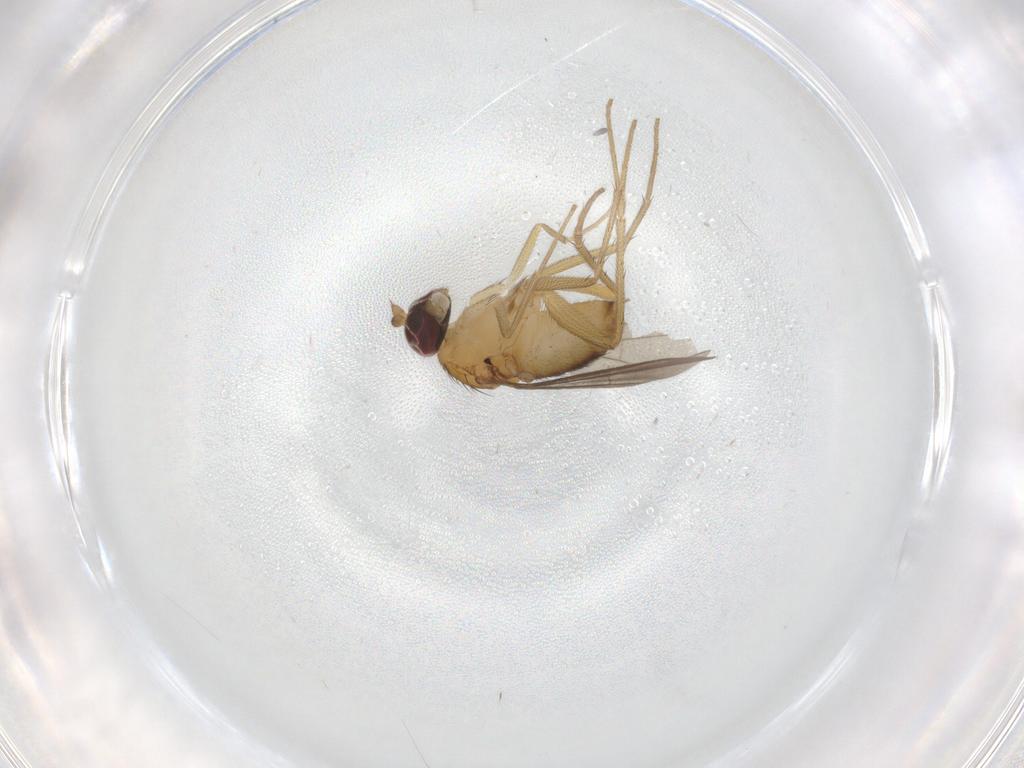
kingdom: Animalia
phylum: Arthropoda
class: Insecta
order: Diptera
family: Dolichopodidae
